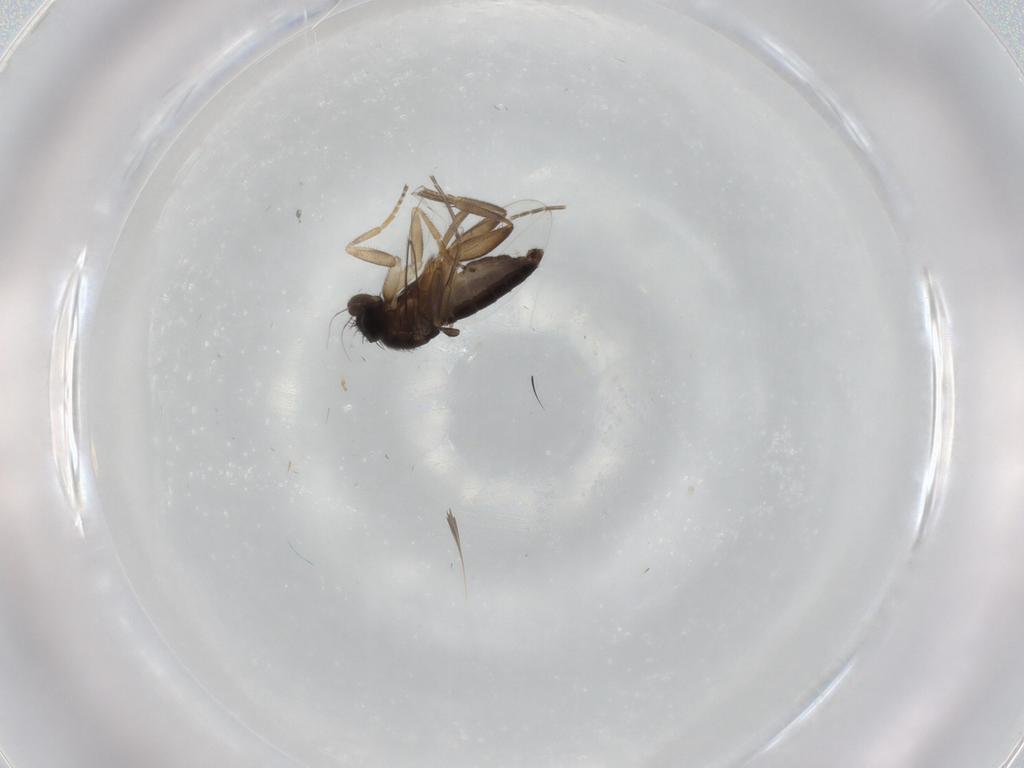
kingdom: Animalia
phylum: Arthropoda
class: Insecta
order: Diptera
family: Phoridae
